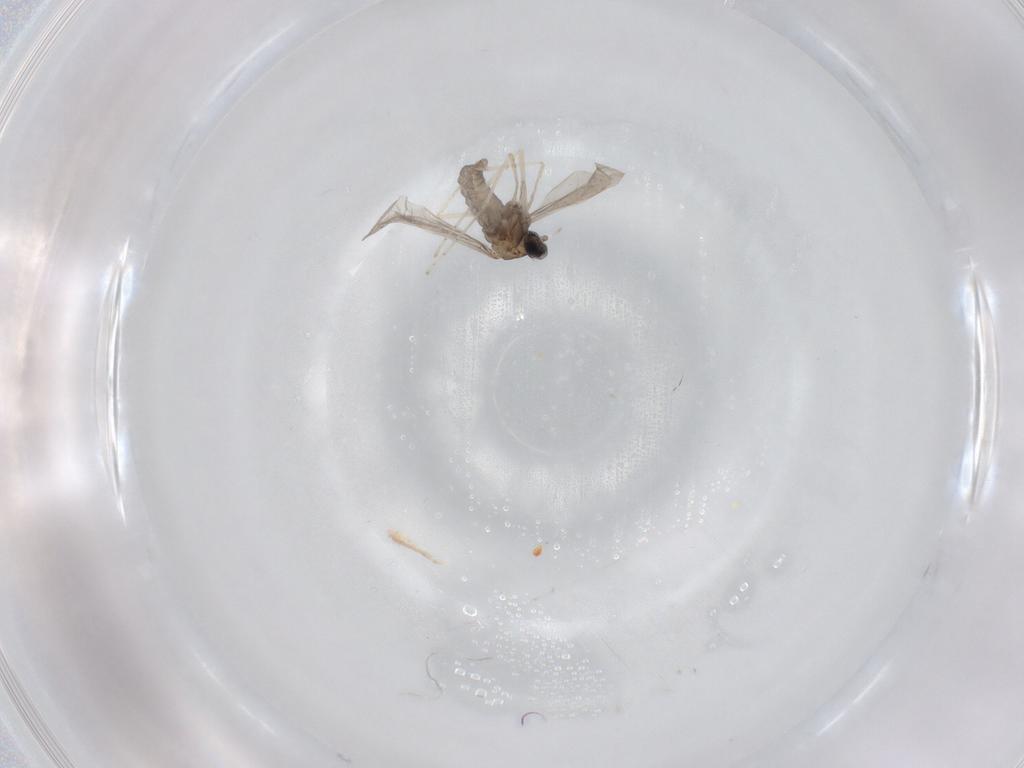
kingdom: Animalia
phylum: Arthropoda
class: Insecta
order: Diptera
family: Cecidomyiidae
